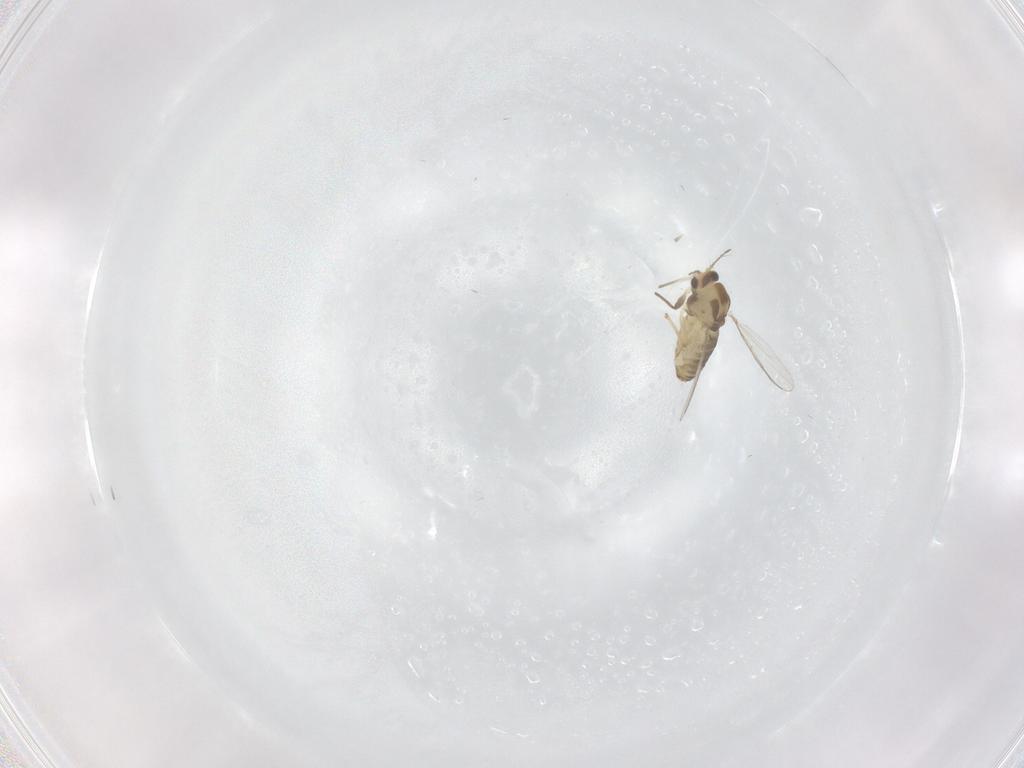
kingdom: Animalia
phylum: Arthropoda
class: Insecta
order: Diptera
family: Chironomidae
